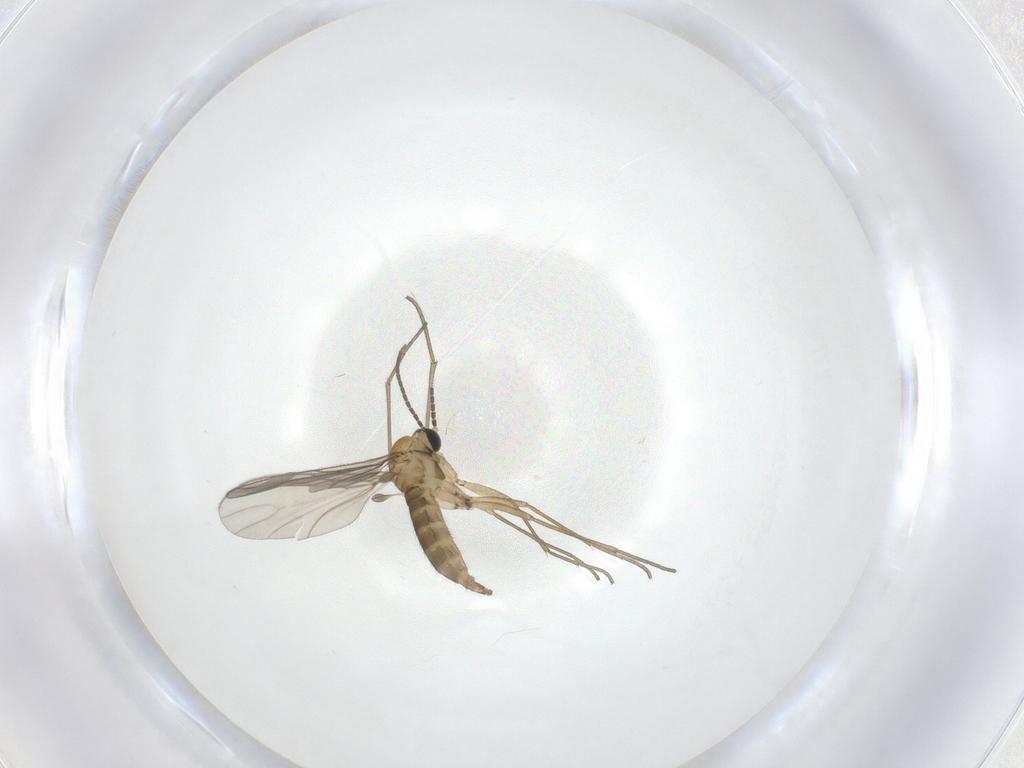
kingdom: Animalia
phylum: Arthropoda
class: Insecta
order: Diptera
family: Sciaridae
